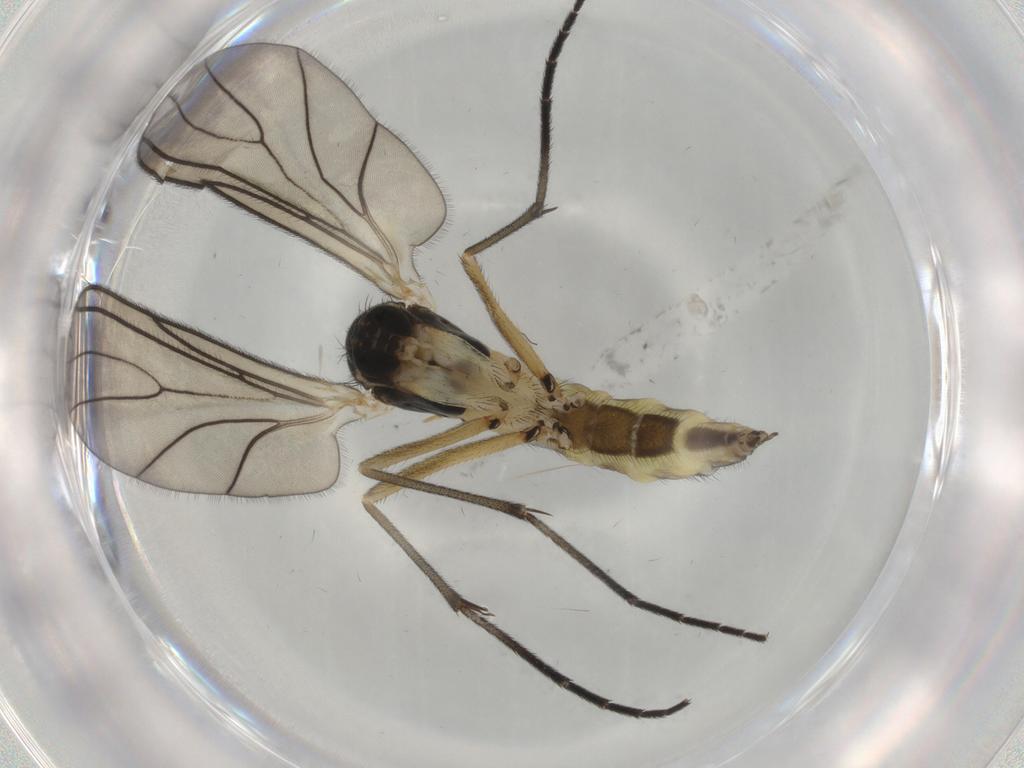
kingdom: Animalia
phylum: Arthropoda
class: Insecta
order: Diptera
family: Sciaridae
